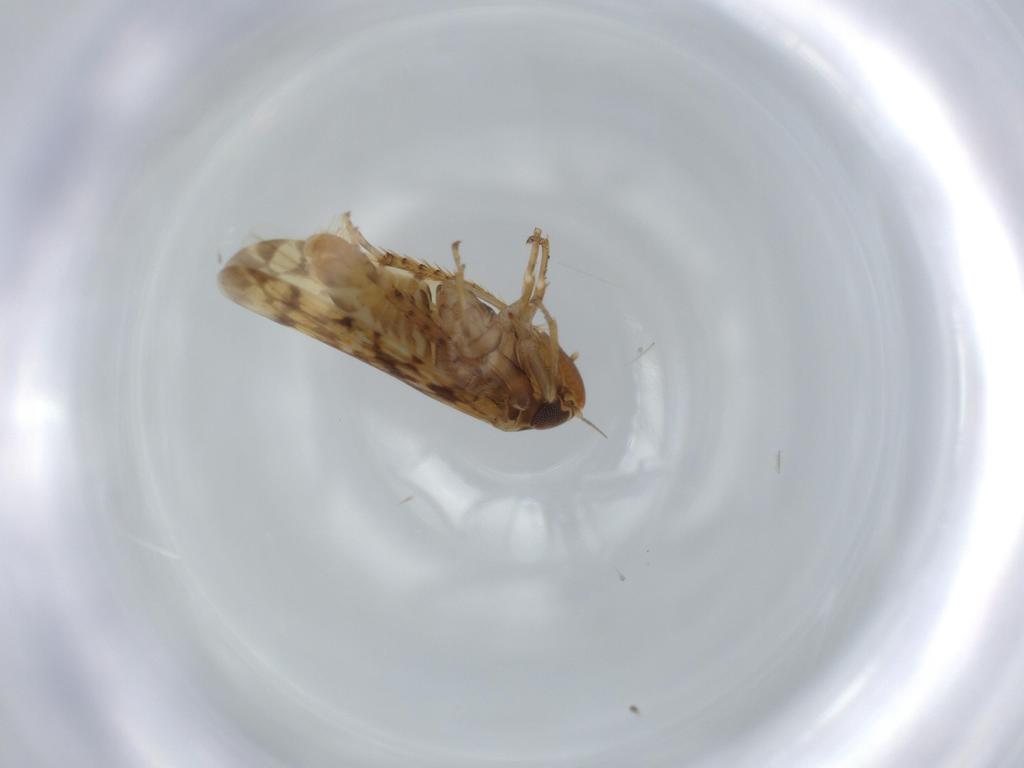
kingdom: Animalia
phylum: Arthropoda
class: Insecta
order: Hemiptera
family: Cicadellidae
